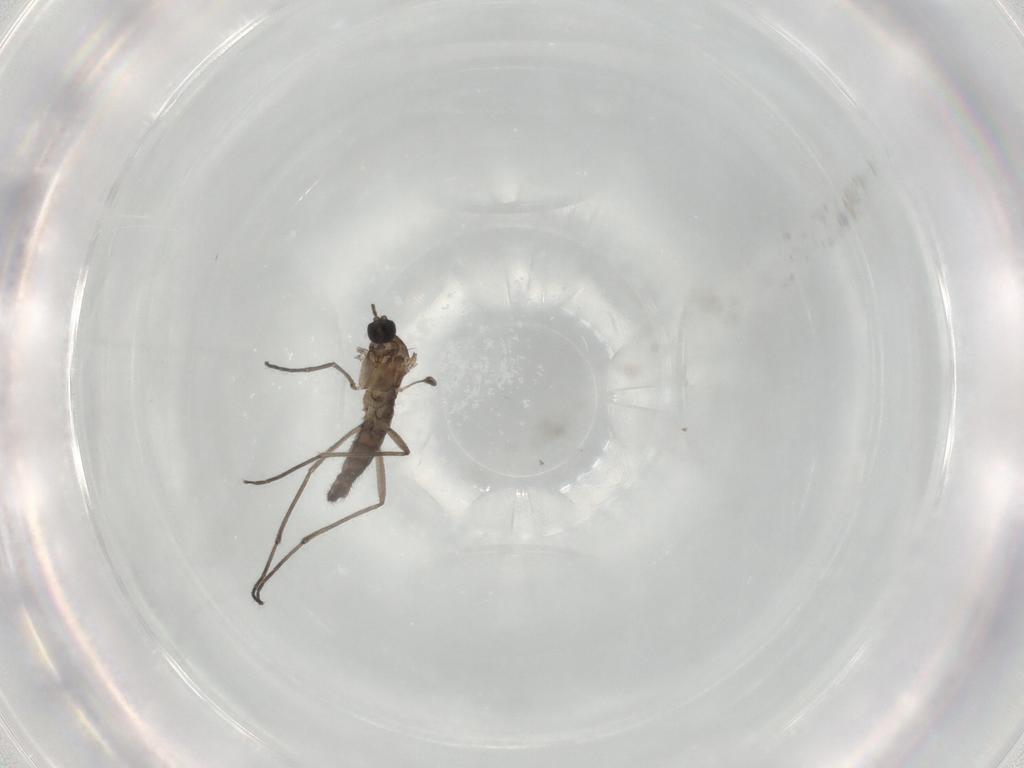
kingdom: Animalia
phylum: Arthropoda
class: Insecta
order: Diptera
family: Sciaridae
